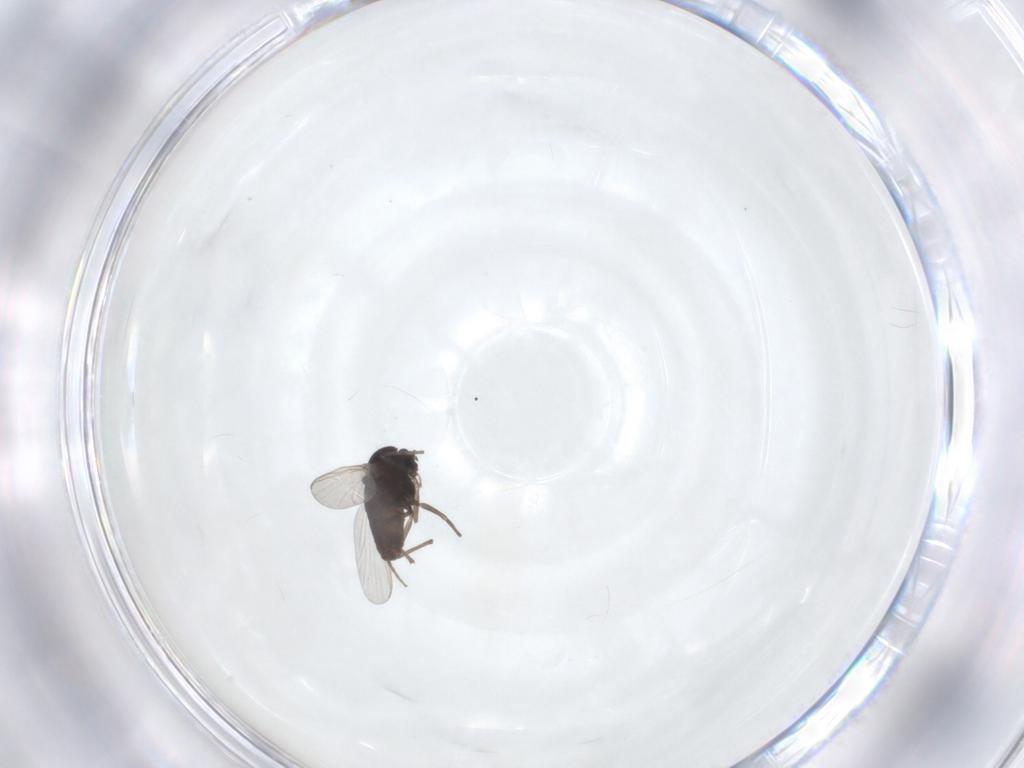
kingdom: Animalia
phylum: Arthropoda
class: Insecta
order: Diptera
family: Chironomidae
